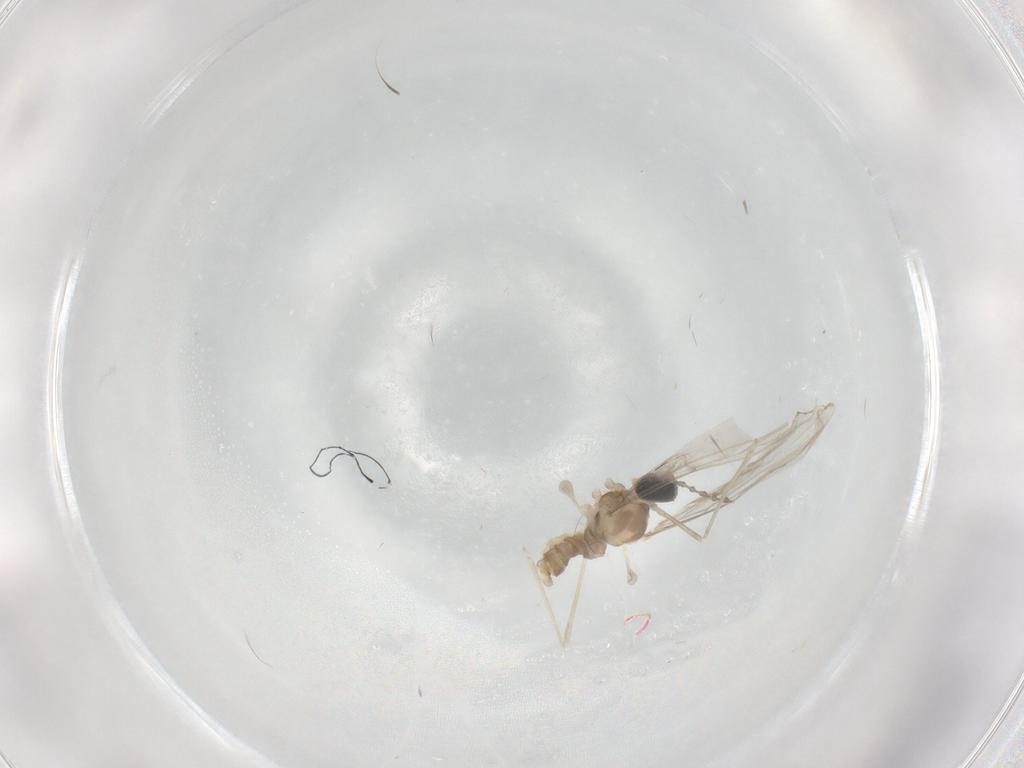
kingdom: Animalia
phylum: Arthropoda
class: Insecta
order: Diptera
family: Cecidomyiidae
